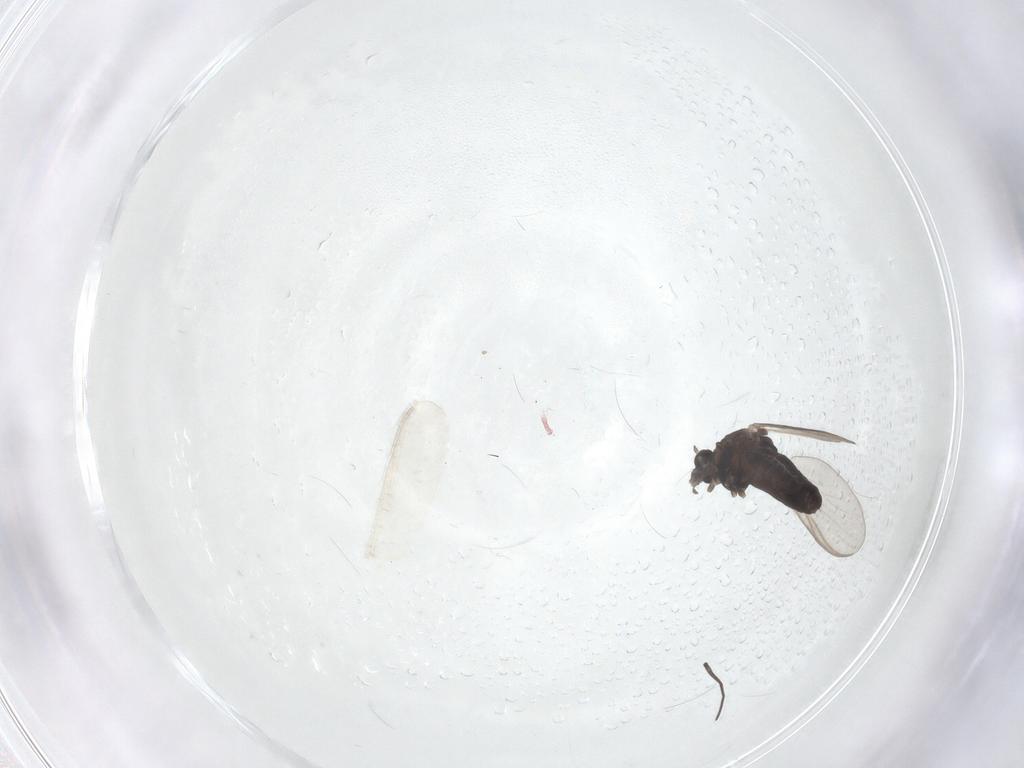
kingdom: Animalia
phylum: Arthropoda
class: Insecta
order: Diptera
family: Chironomidae
